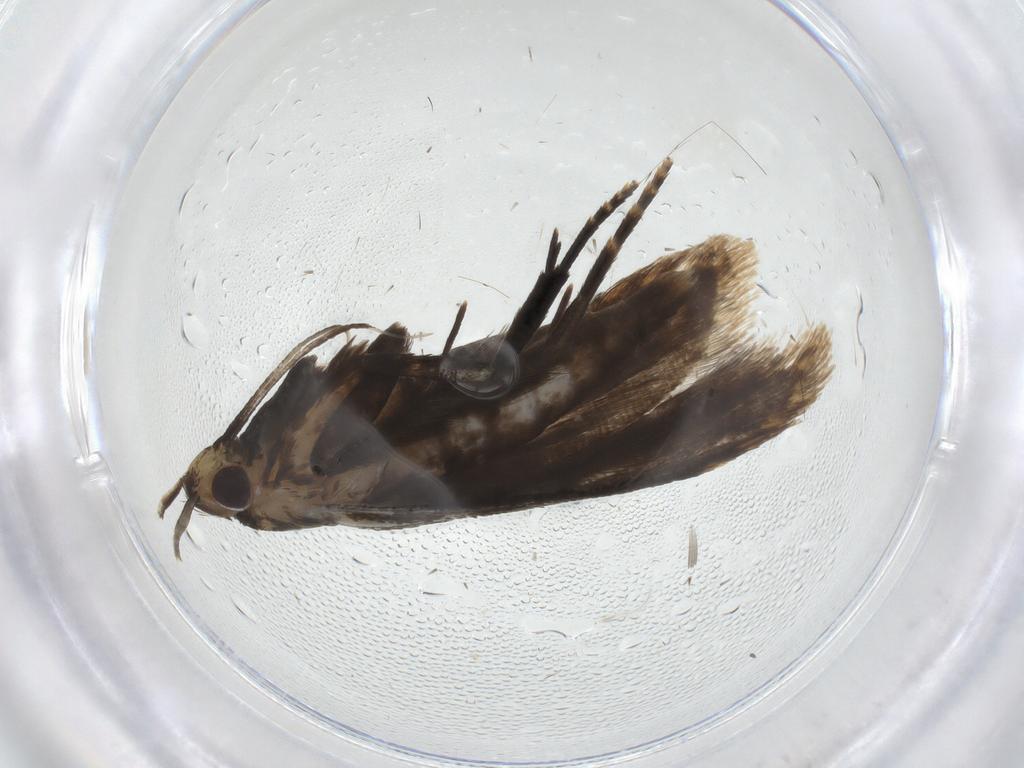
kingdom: Animalia
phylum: Arthropoda
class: Insecta
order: Lepidoptera
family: Gelechiidae
